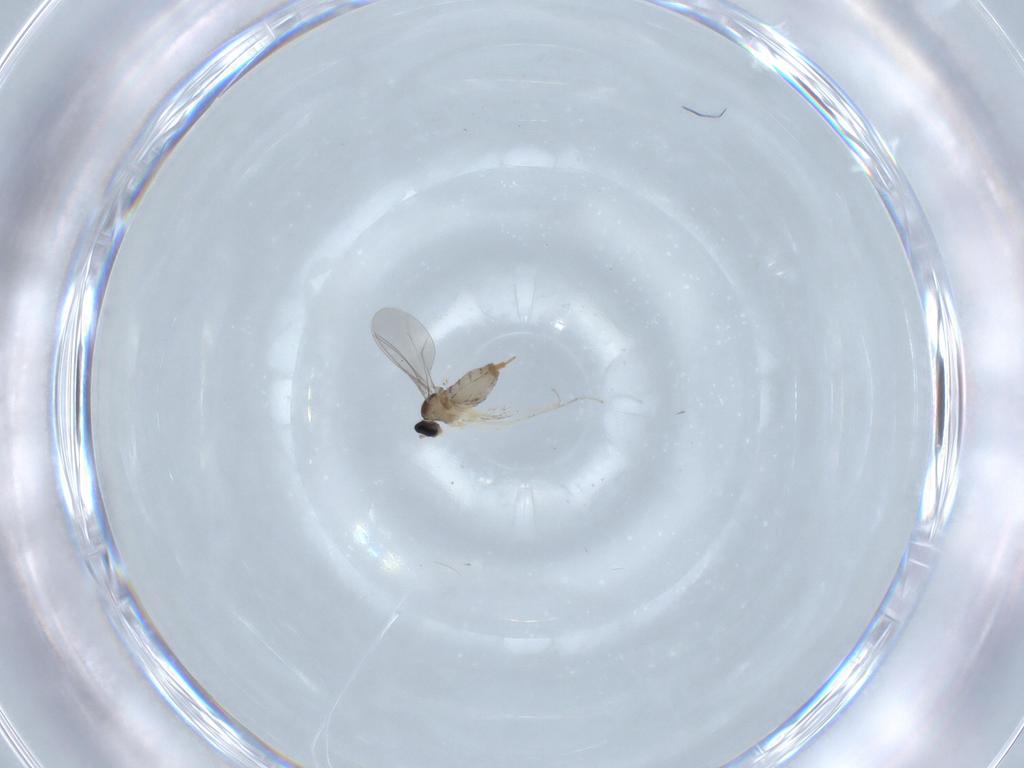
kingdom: Animalia
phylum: Arthropoda
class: Insecta
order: Diptera
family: Cecidomyiidae
